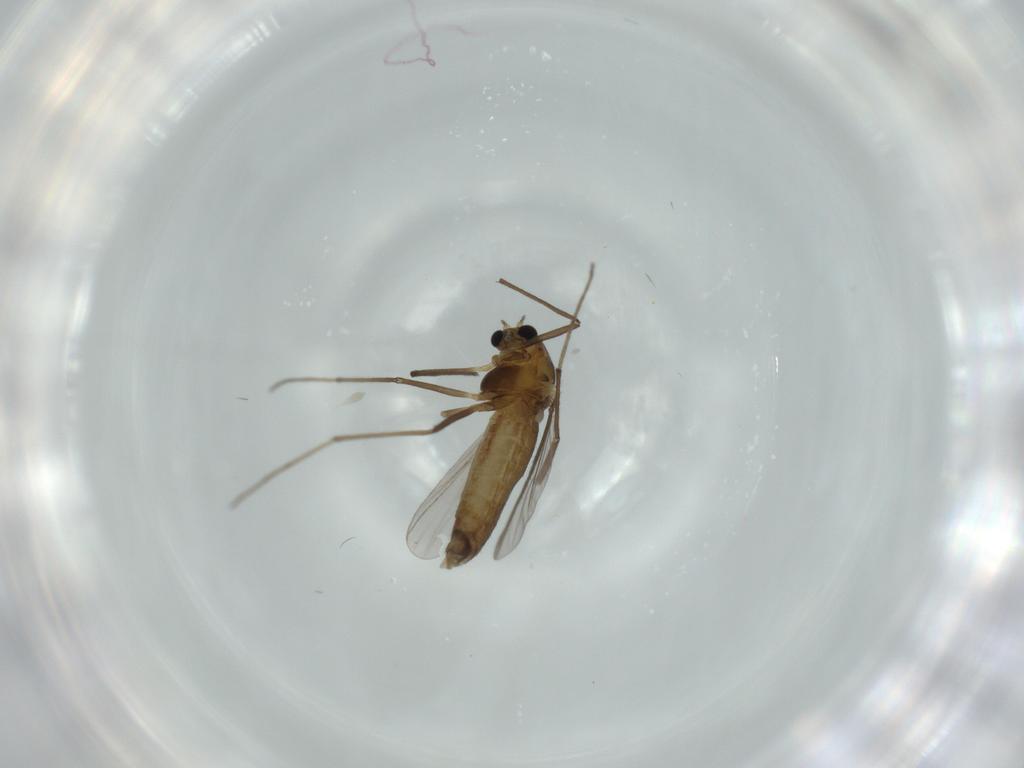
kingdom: Animalia
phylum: Arthropoda
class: Insecta
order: Diptera
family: Chironomidae
